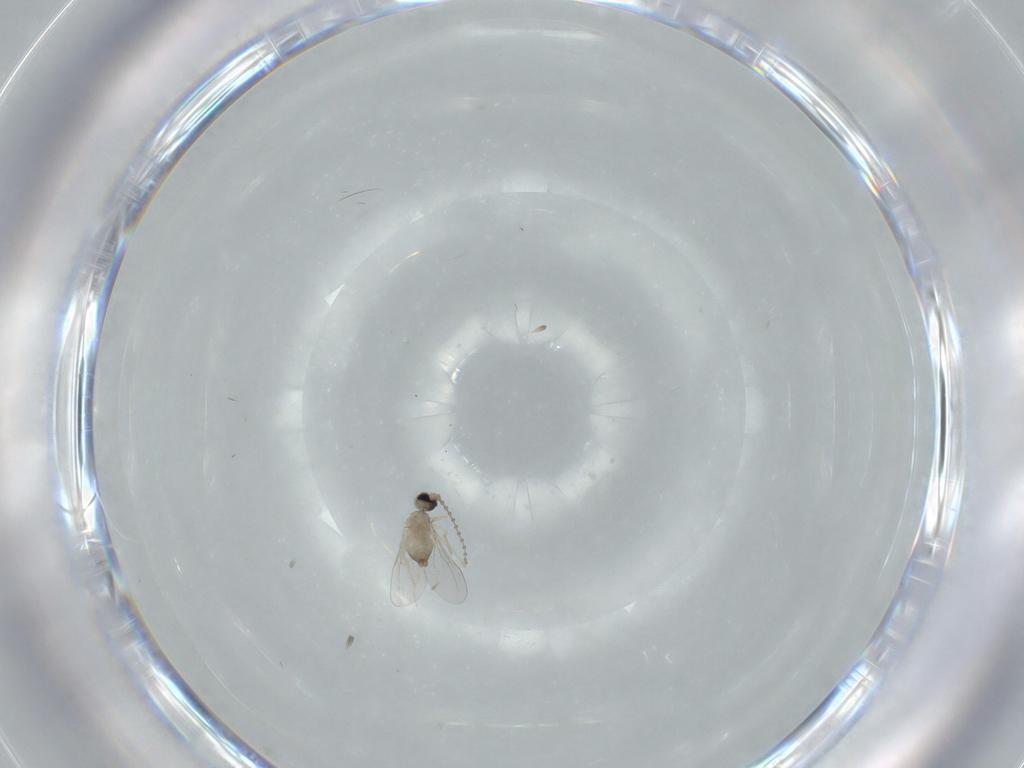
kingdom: Animalia
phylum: Arthropoda
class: Insecta
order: Diptera
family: Cecidomyiidae
